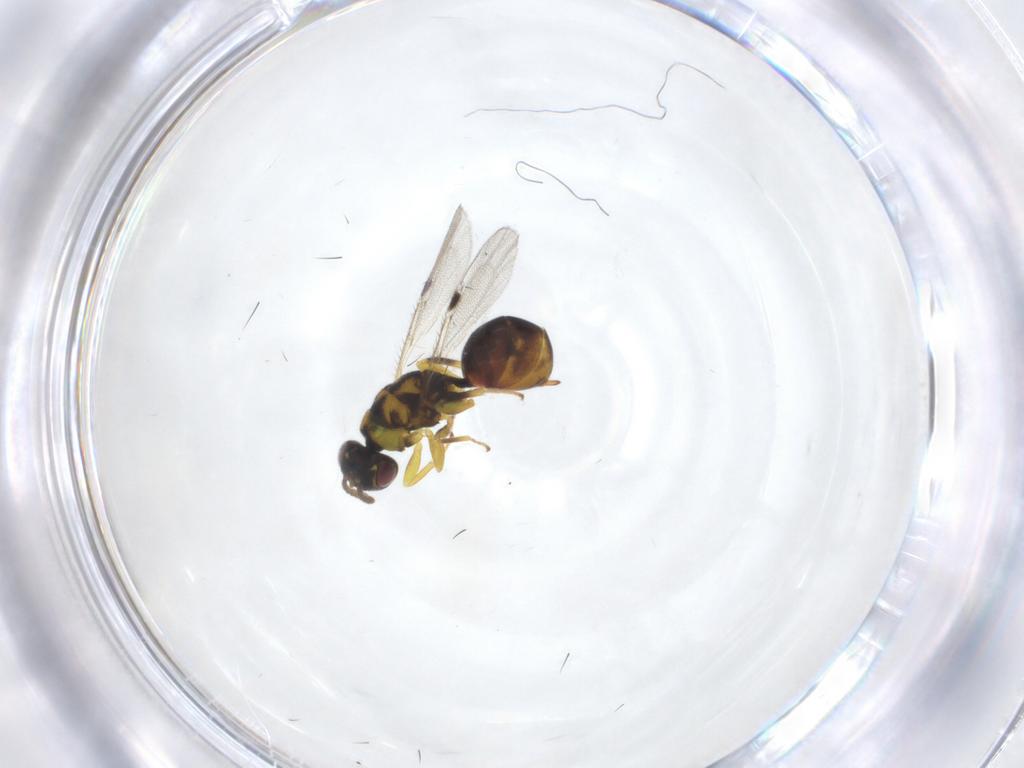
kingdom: Animalia
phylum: Arthropoda
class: Insecta
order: Hymenoptera
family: Eurytomidae
